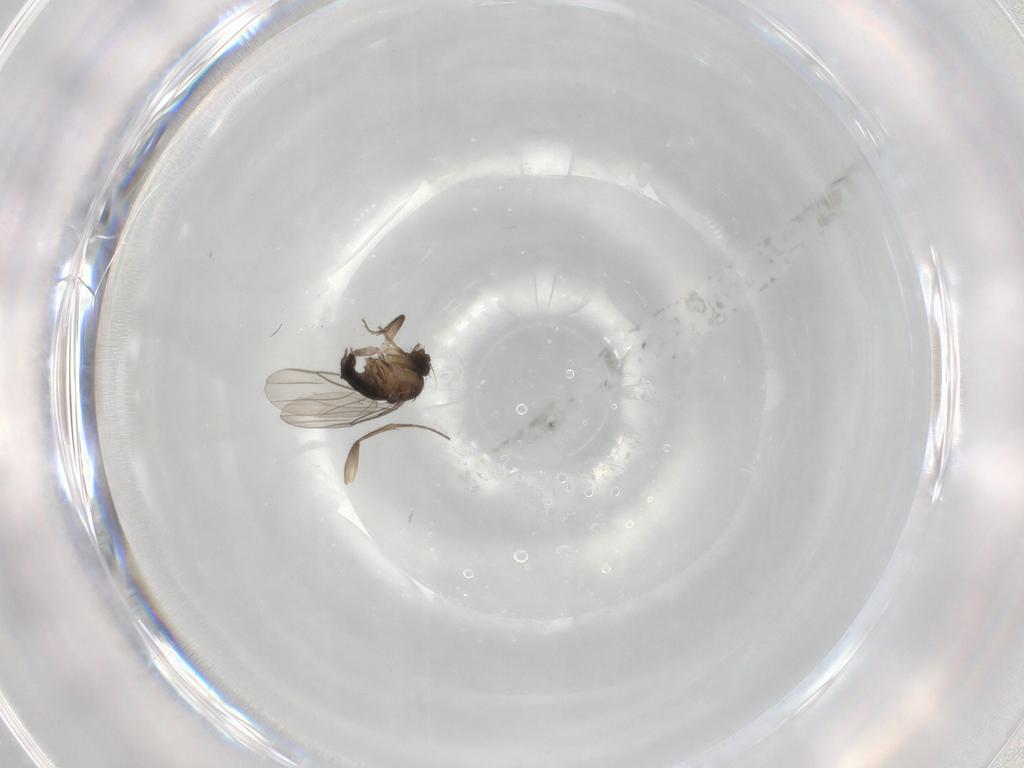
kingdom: Animalia
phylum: Arthropoda
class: Insecta
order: Diptera
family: Phoridae
